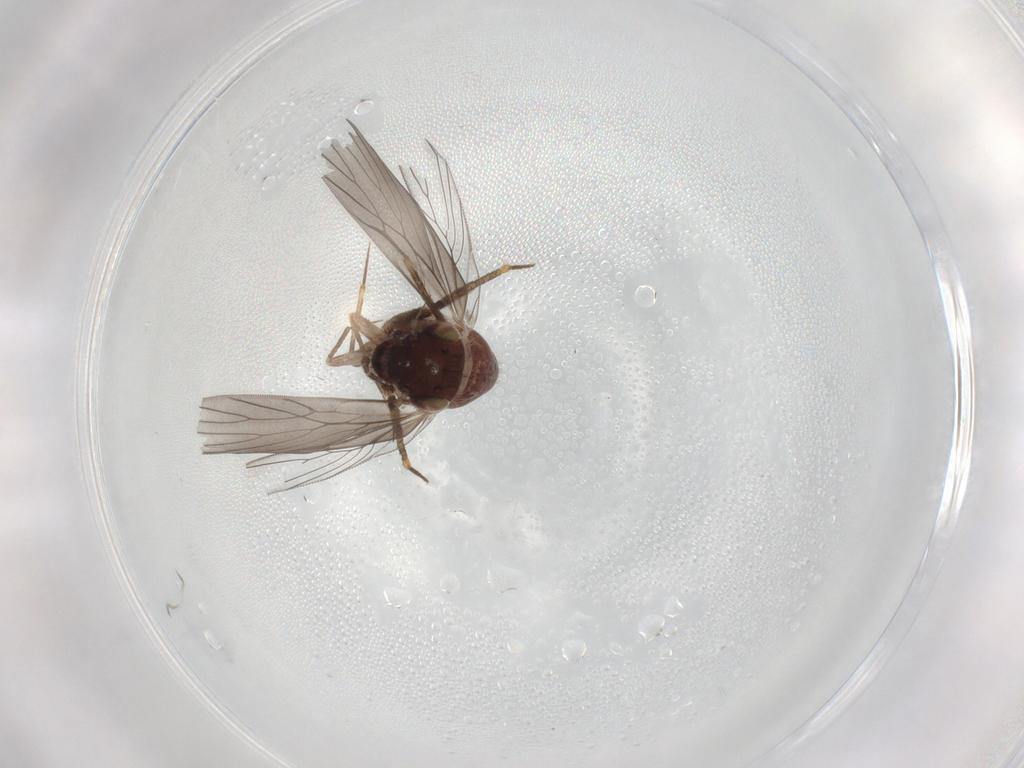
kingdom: Animalia
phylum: Arthropoda
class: Insecta
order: Psocodea
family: Lepidopsocidae
